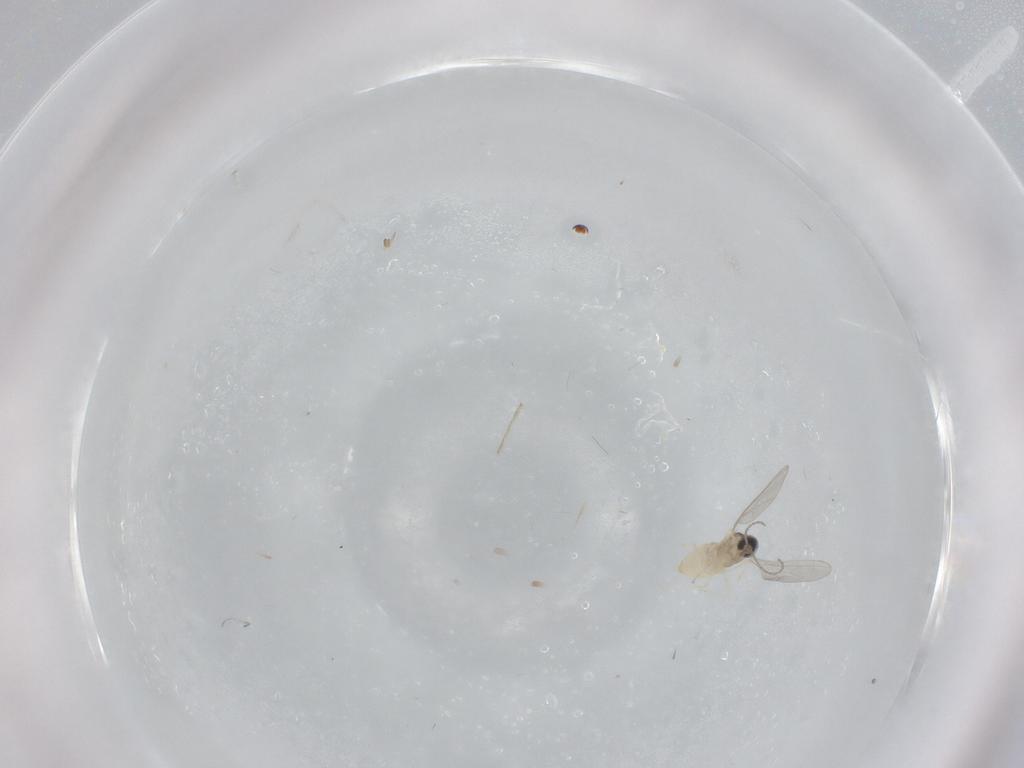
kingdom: Animalia
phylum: Arthropoda
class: Insecta
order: Diptera
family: Cecidomyiidae
